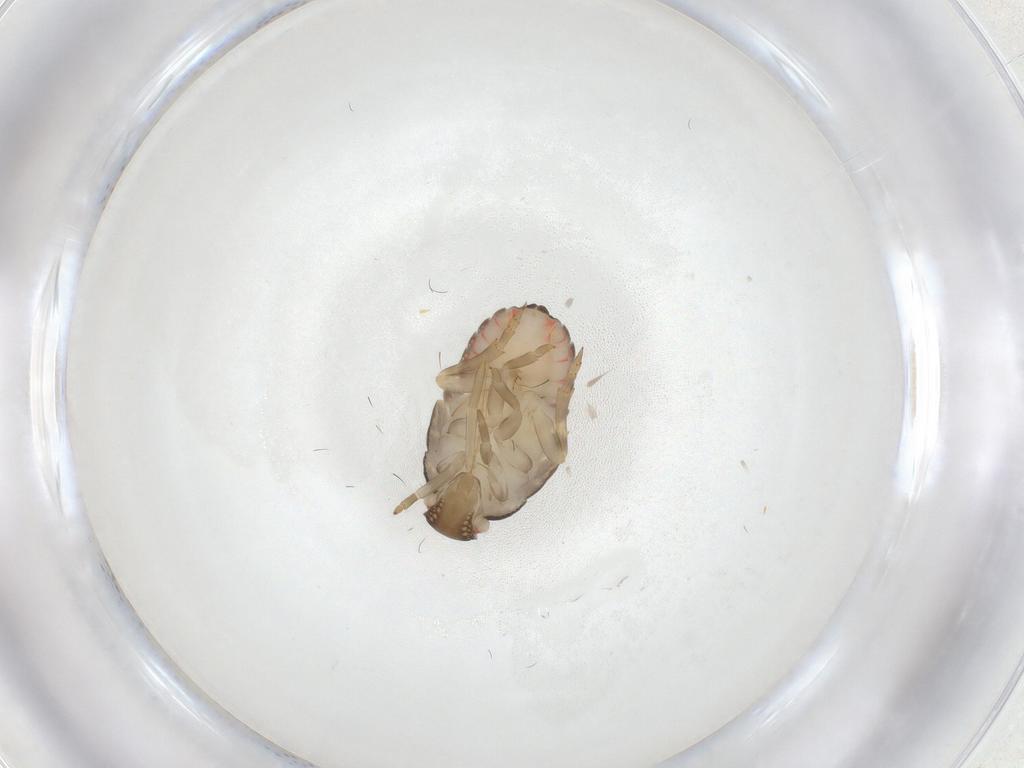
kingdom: Animalia
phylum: Arthropoda
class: Insecta
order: Hemiptera
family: Cicadellidae
